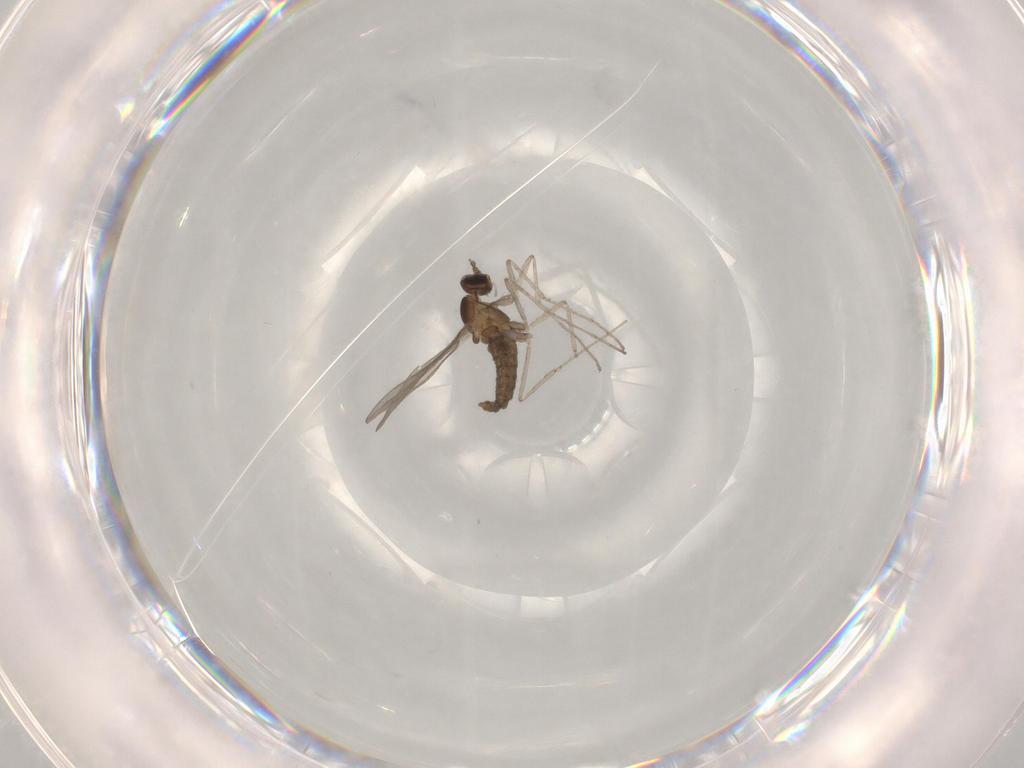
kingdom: Animalia
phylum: Arthropoda
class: Insecta
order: Diptera
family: Cecidomyiidae
